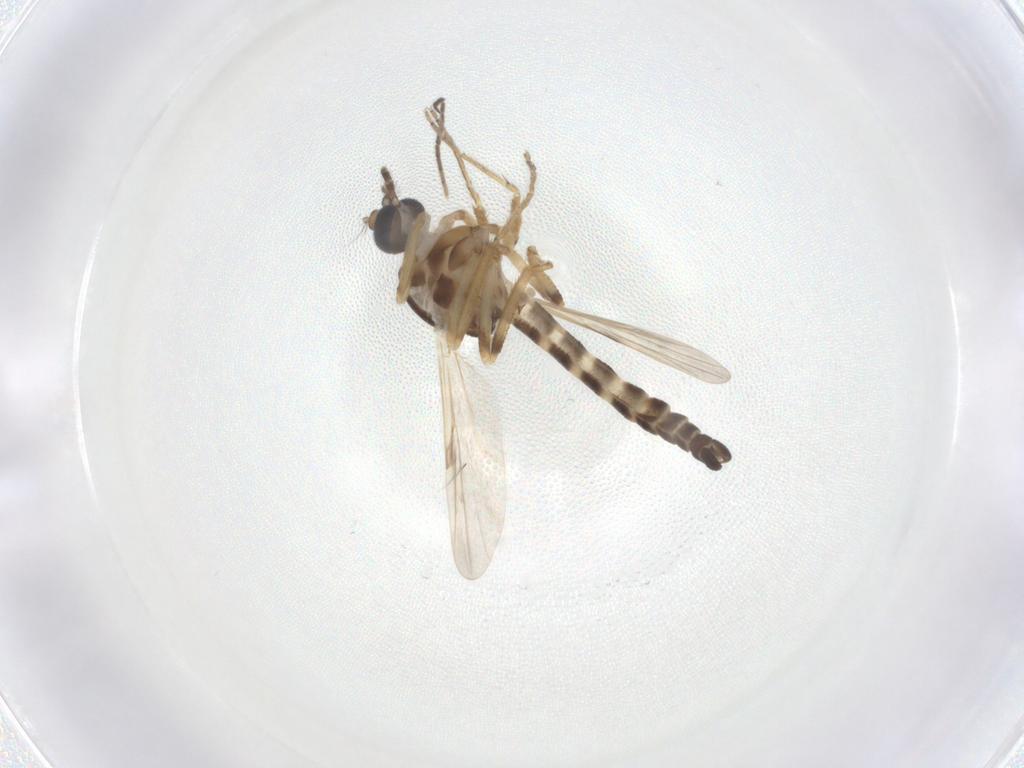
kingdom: Animalia
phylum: Arthropoda
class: Insecta
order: Diptera
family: Ceratopogonidae
